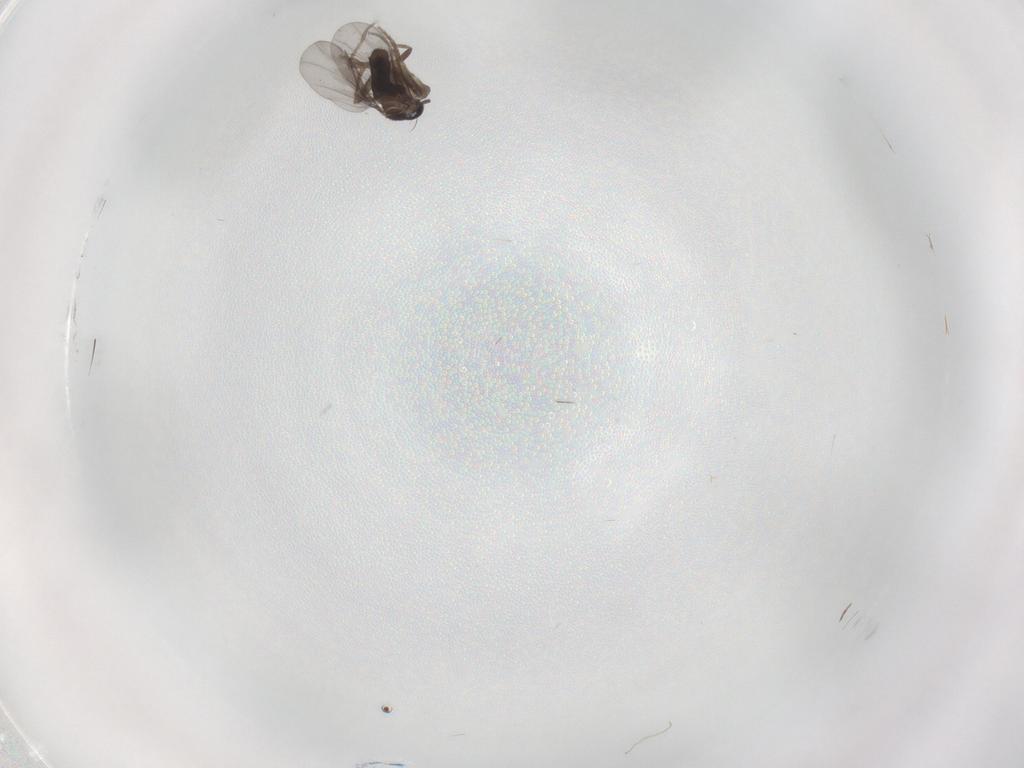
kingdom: Animalia
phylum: Arthropoda
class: Insecta
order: Diptera
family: Cecidomyiidae
